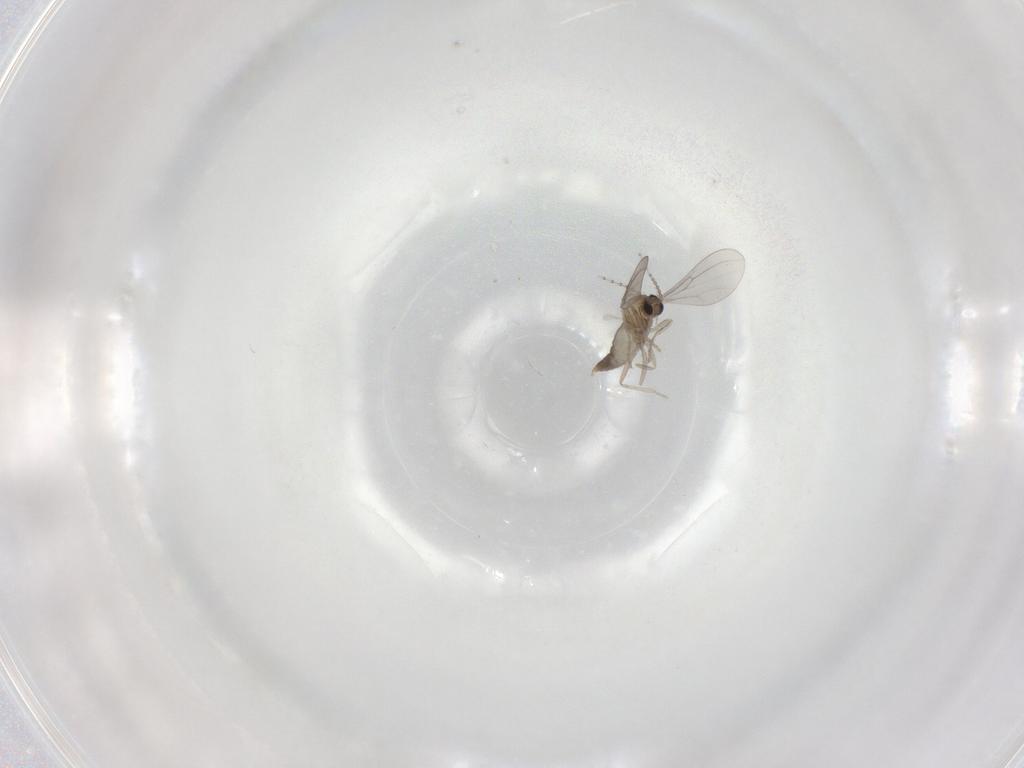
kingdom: Animalia
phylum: Arthropoda
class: Insecta
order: Diptera
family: Cecidomyiidae
